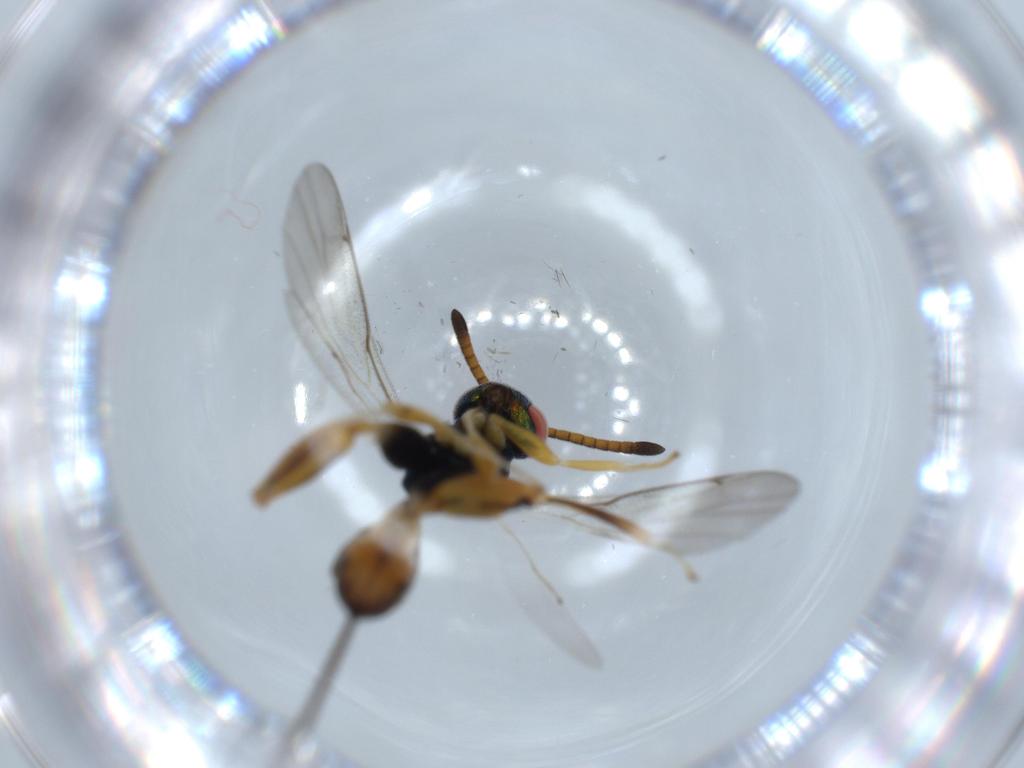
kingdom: Animalia
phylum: Arthropoda
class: Insecta
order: Hymenoptera
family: Torymidae
